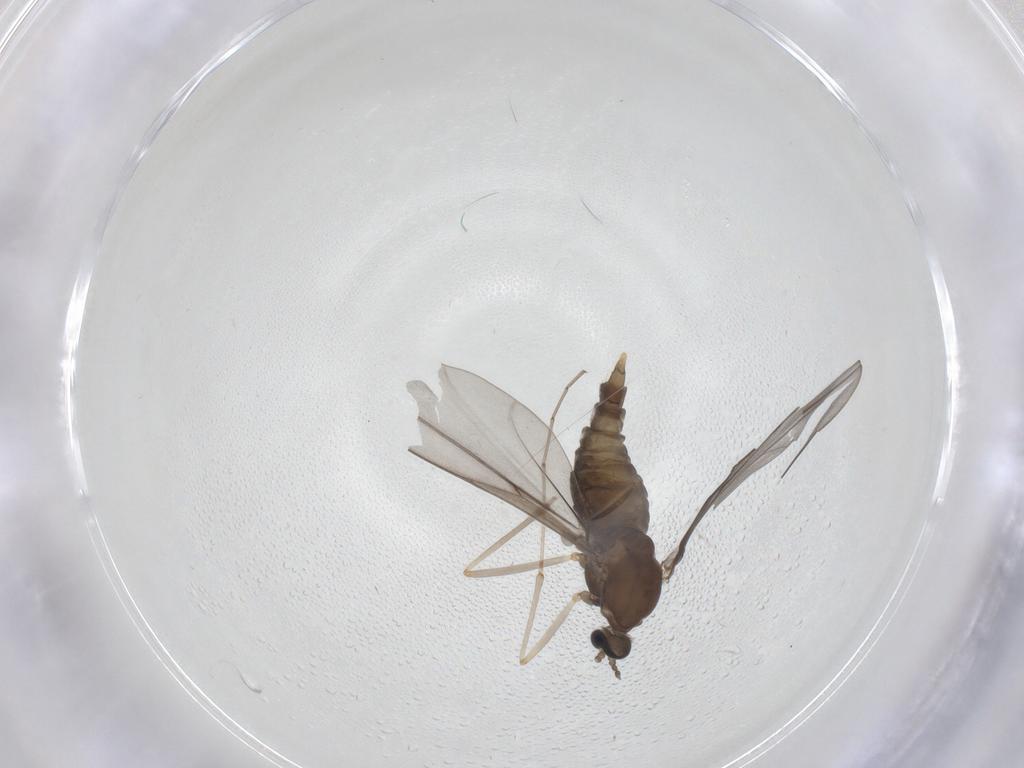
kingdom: Animalia
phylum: Arthropoda
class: Insecta
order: Diptera
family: Cecidomyiidae
